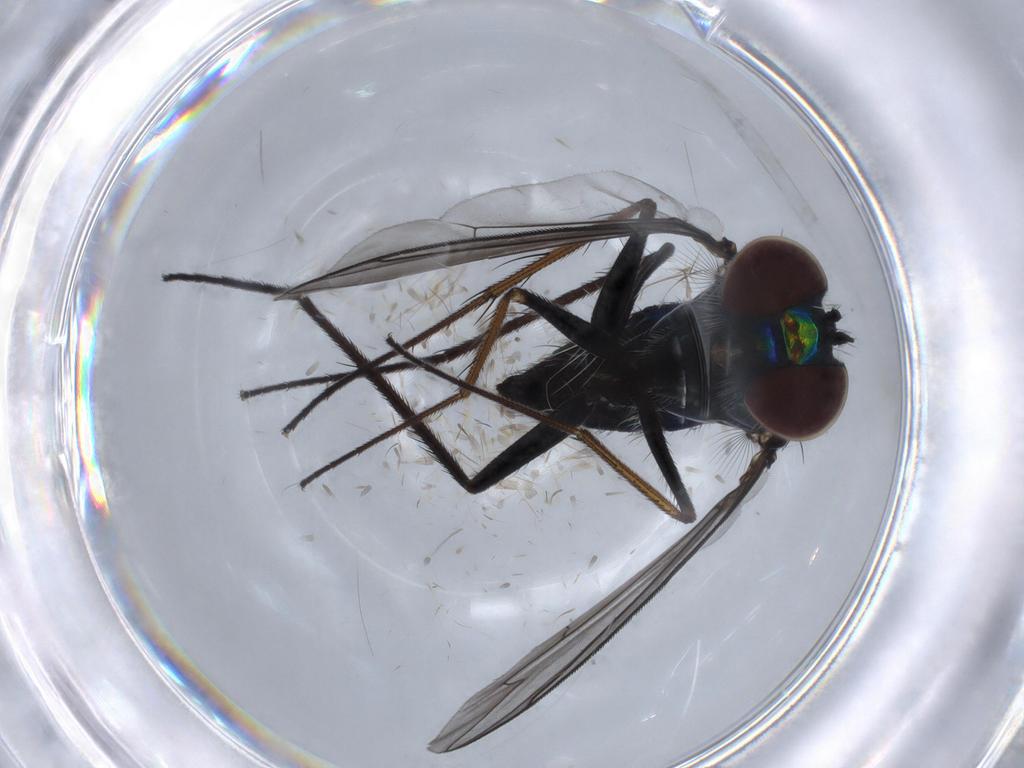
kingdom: Animalia
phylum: Arthropoda
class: Insecta
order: Diptera
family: Dolichopodidae
